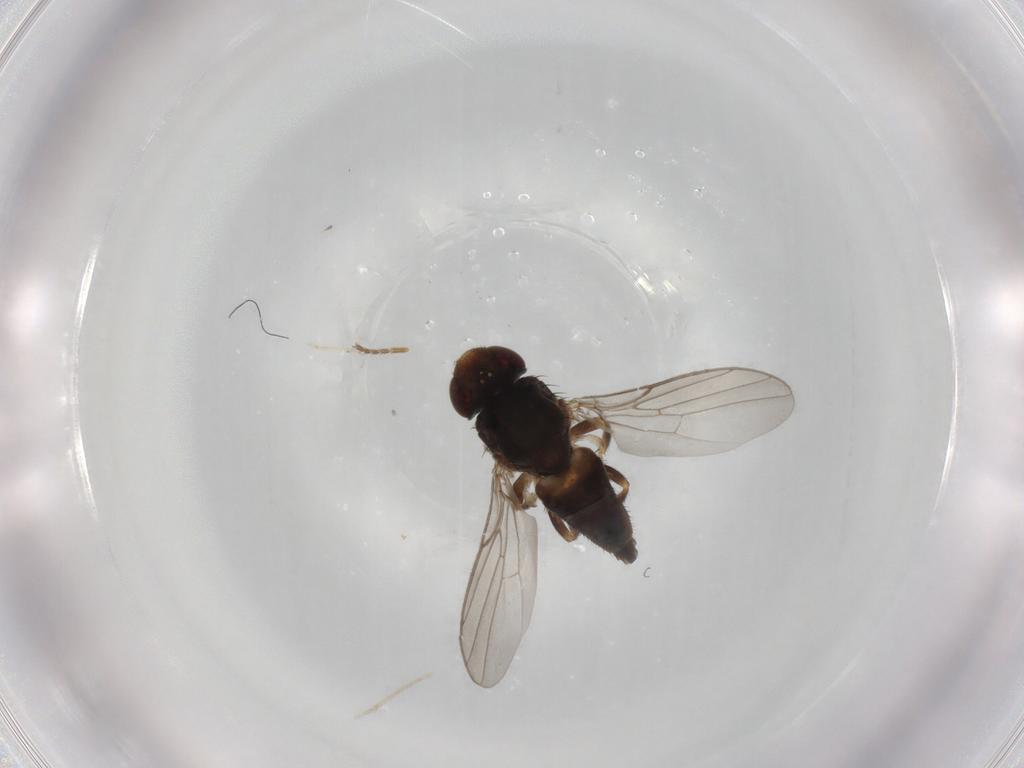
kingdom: Animalia
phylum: Arthropoda
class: Insecta
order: Diptera
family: Chloropidae
